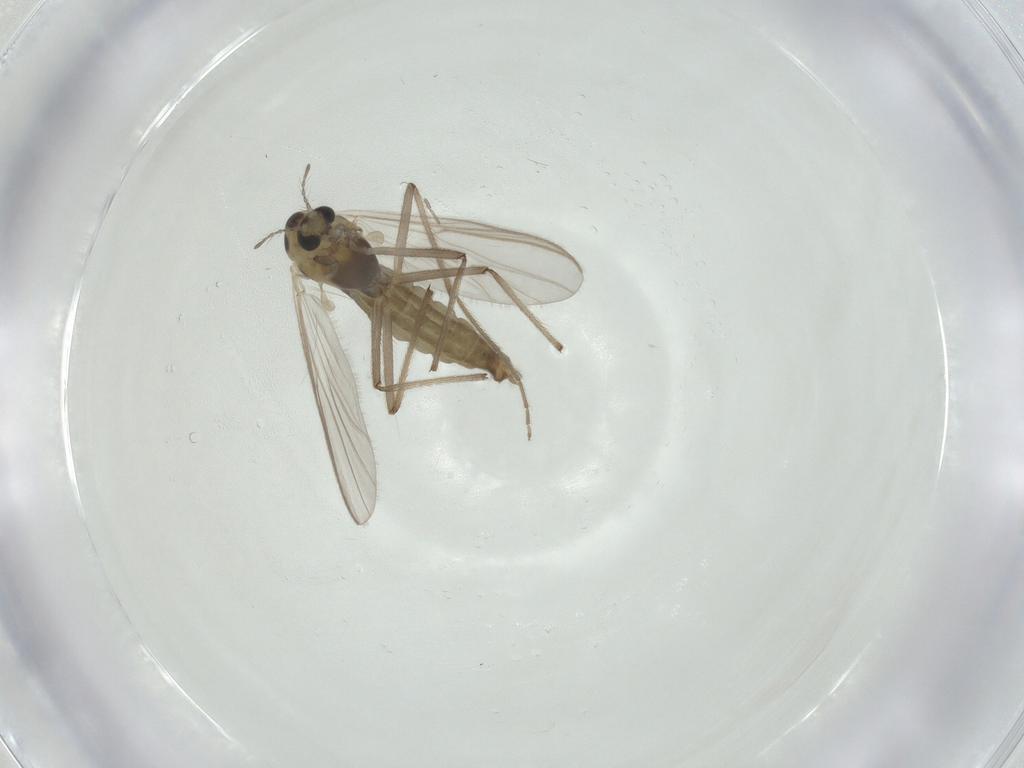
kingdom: Animalia
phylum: Arthropoda
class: Insecta
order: Diptera
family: Chironomidae
